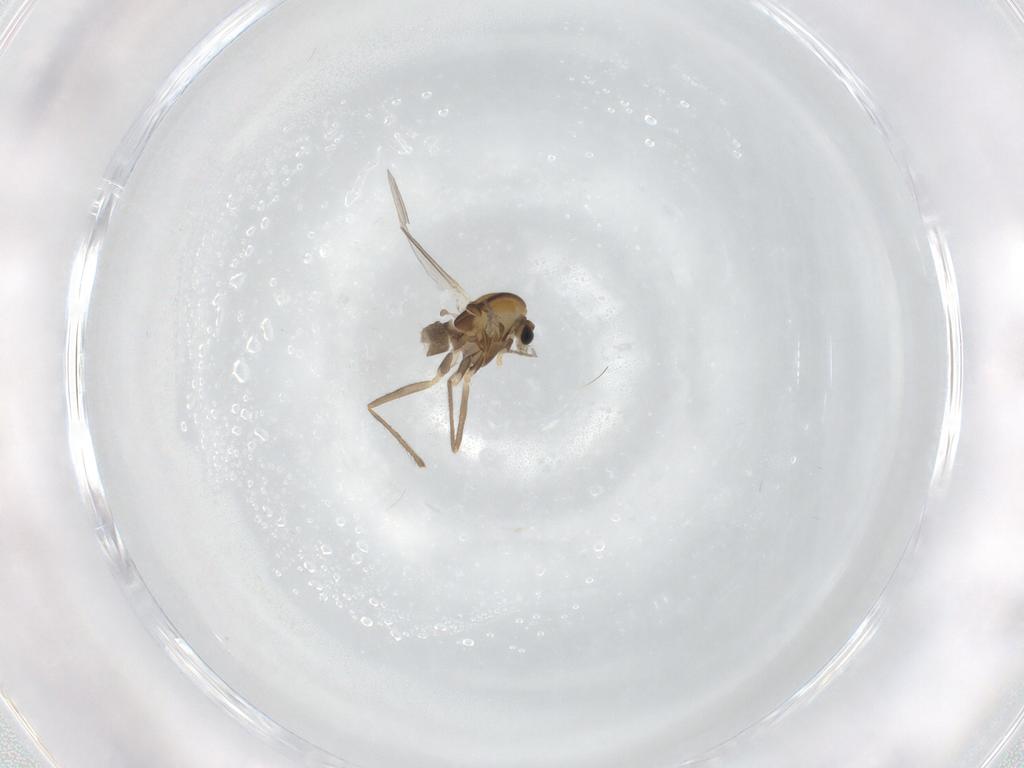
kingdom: Animalia
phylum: Arthropoda
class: Insecta
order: Diptera
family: Chironomidae
